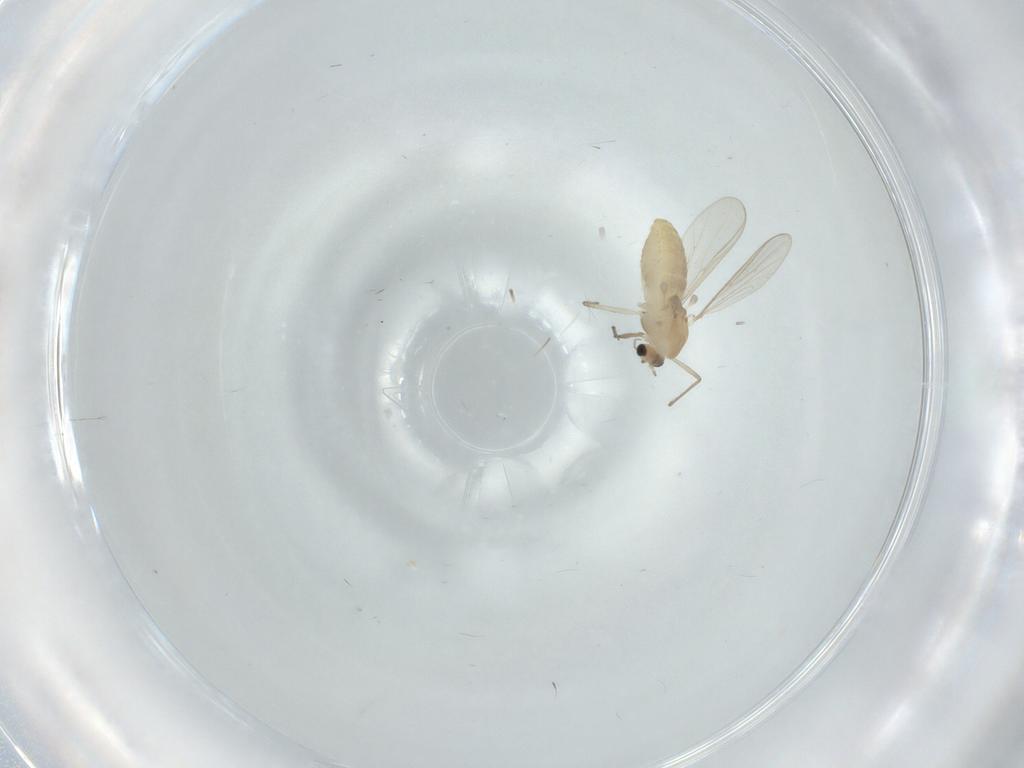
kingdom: Animalia
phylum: Arthropoda
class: Insecta
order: Diptera
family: Chironomidae
